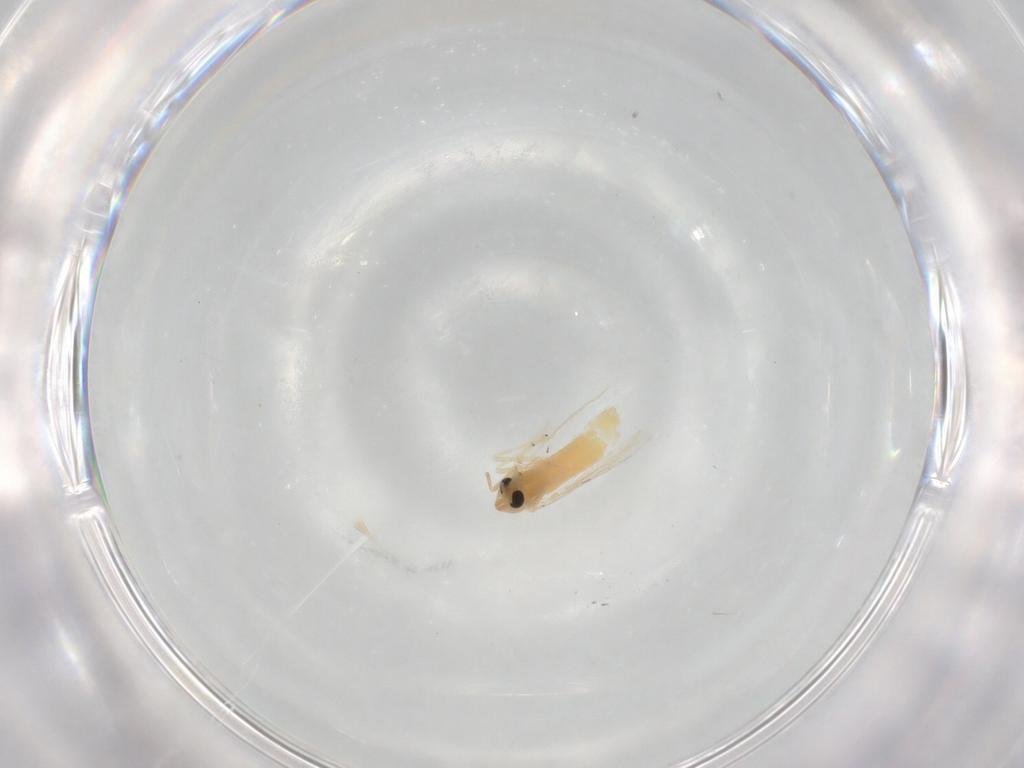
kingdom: Animalia
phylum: Arthropoda
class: Insecta
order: Diptera
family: Chironomidae
